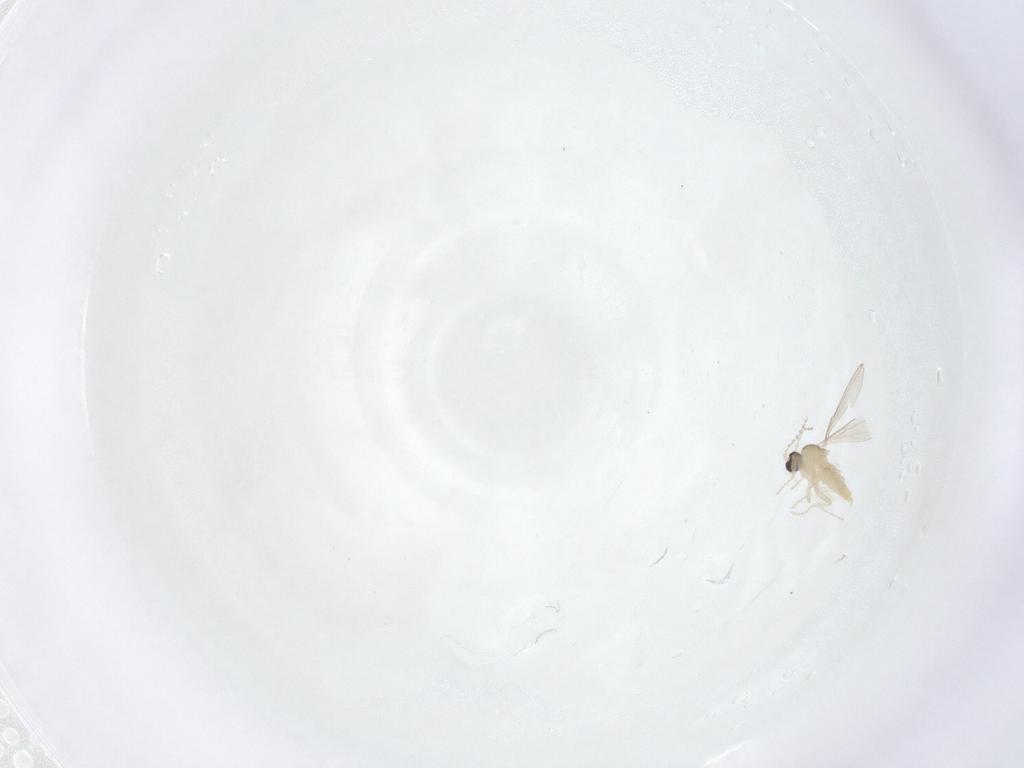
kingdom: Animalia
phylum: Arthropoda
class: Insecta
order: Diptera
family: Cecidomyiidae
